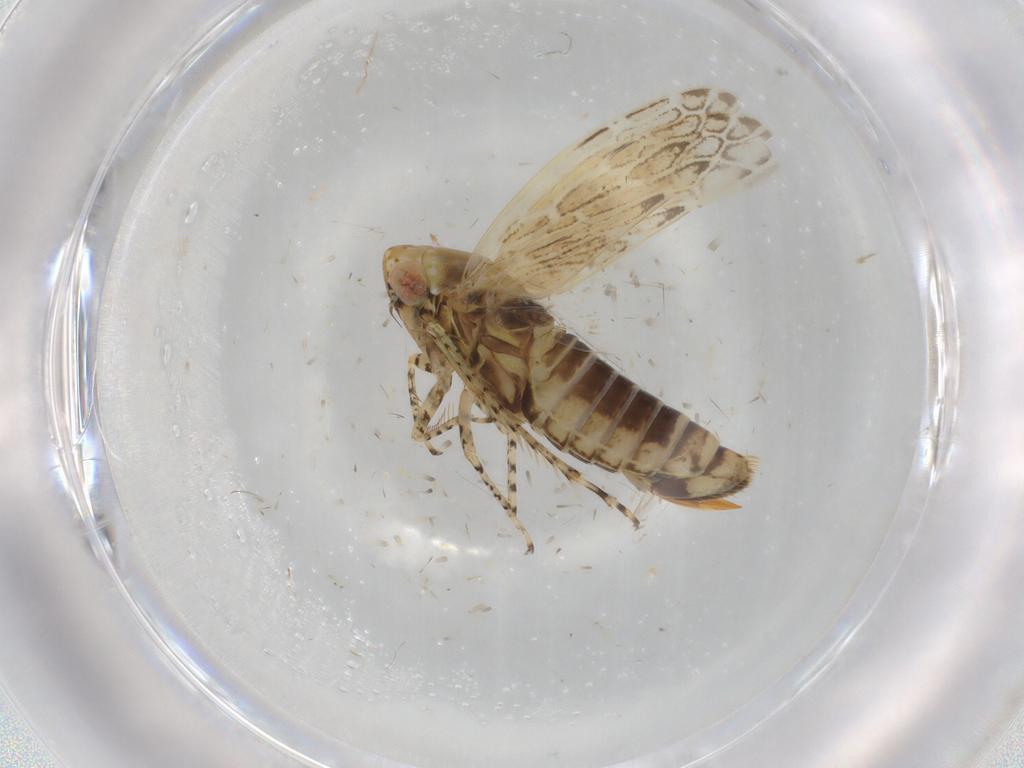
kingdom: Animalia
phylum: Arthropoda
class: Insecta
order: Hemiptera
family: Cicadellidae
